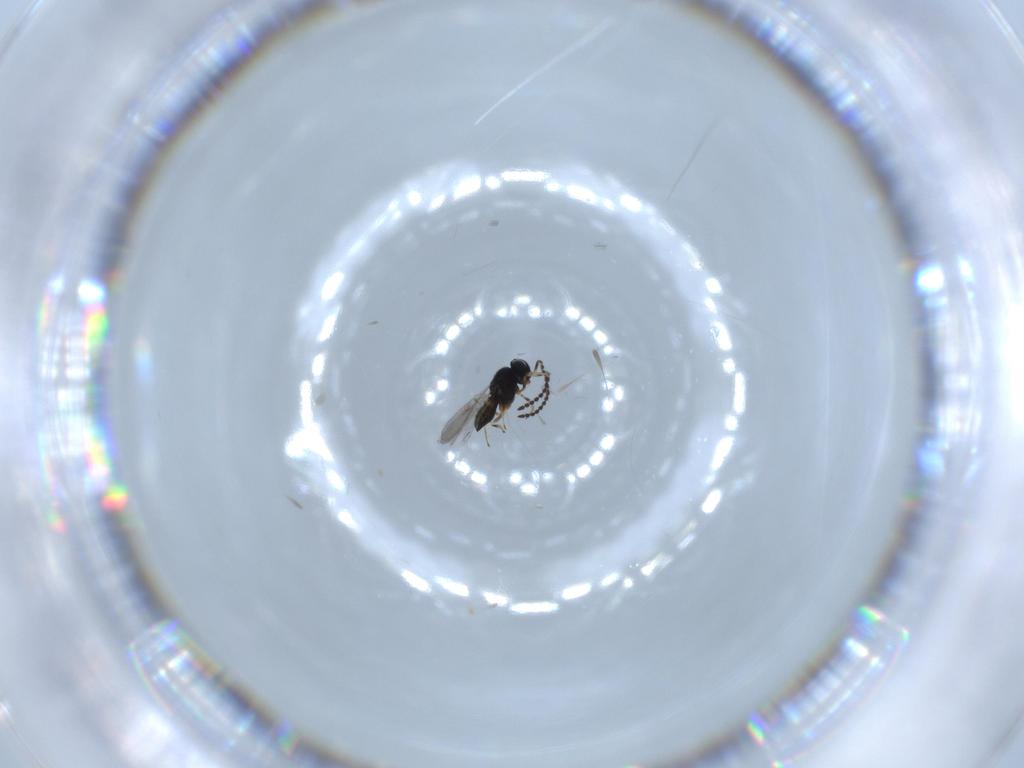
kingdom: Animalia
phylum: Arthropoda
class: Insecta
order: Hymenoptera
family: Scelionidae
